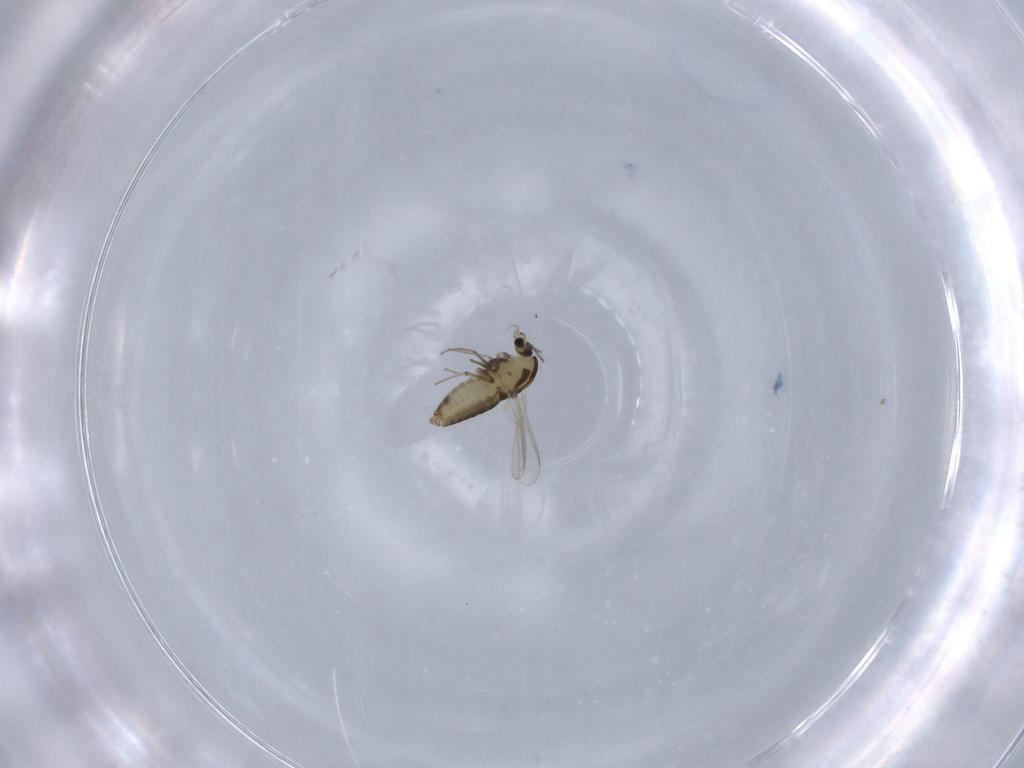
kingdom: Animalia
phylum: Arthropoda
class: Insecta
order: Diptera
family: Chironomidae
